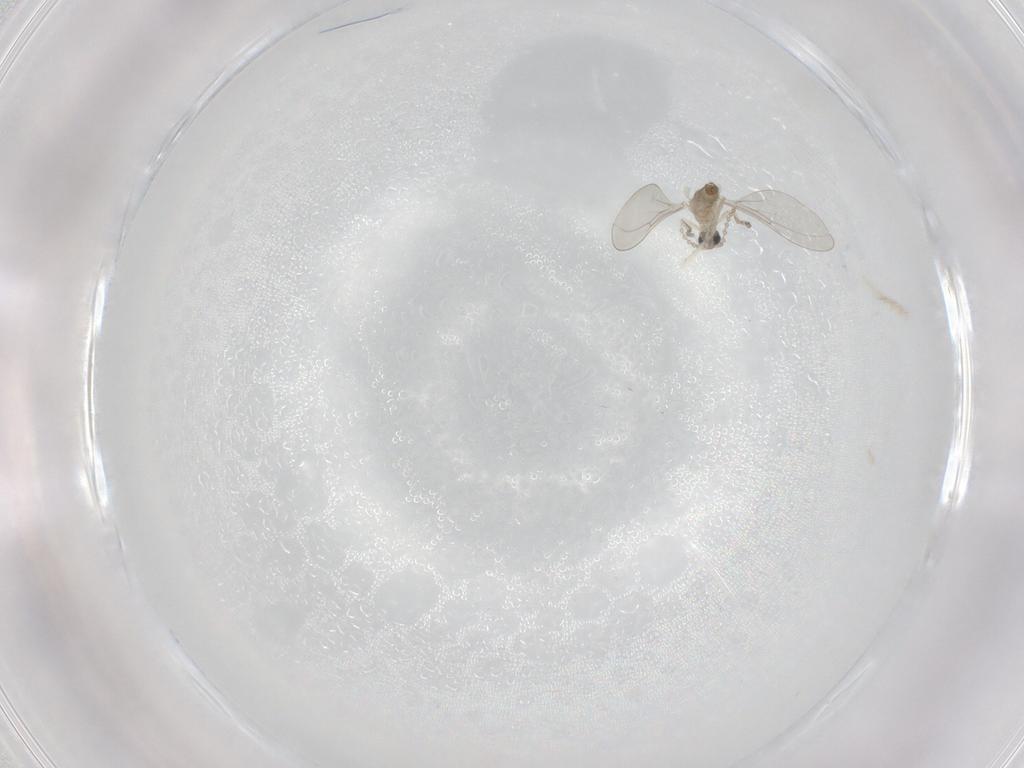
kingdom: Animalia
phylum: Arthropoda
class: Insecta
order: Diptera
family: Cecidomyiidae
